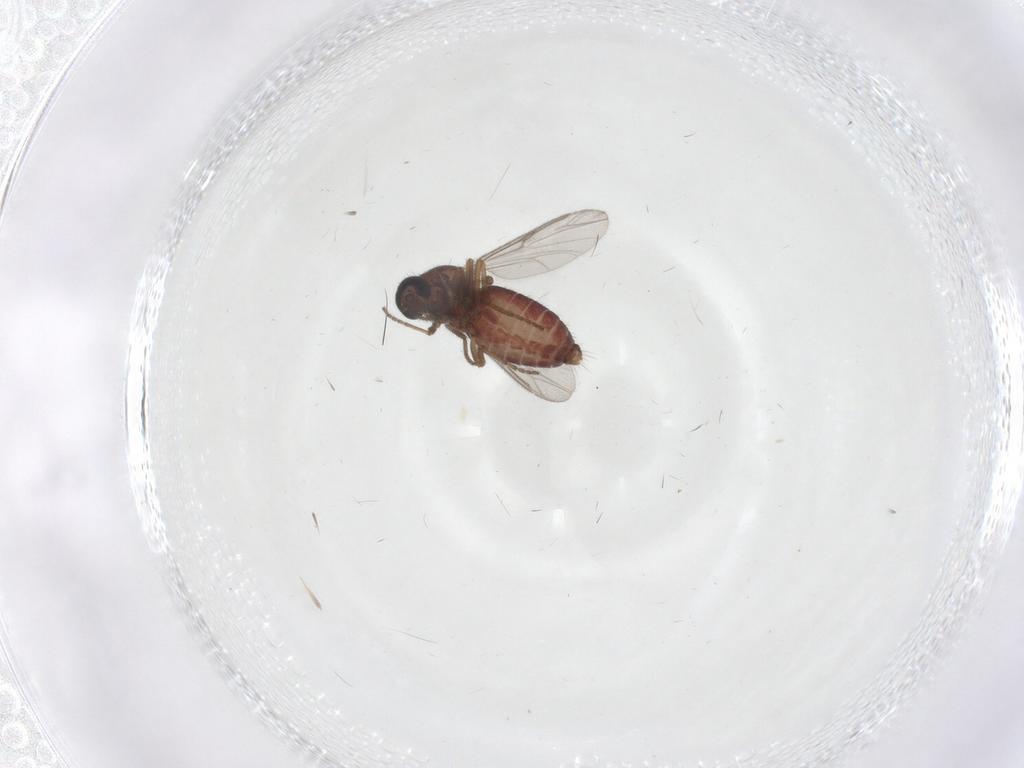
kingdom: Animalia
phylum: Arthropoda
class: Insecta
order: Diptera
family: Ceratopogonidae
